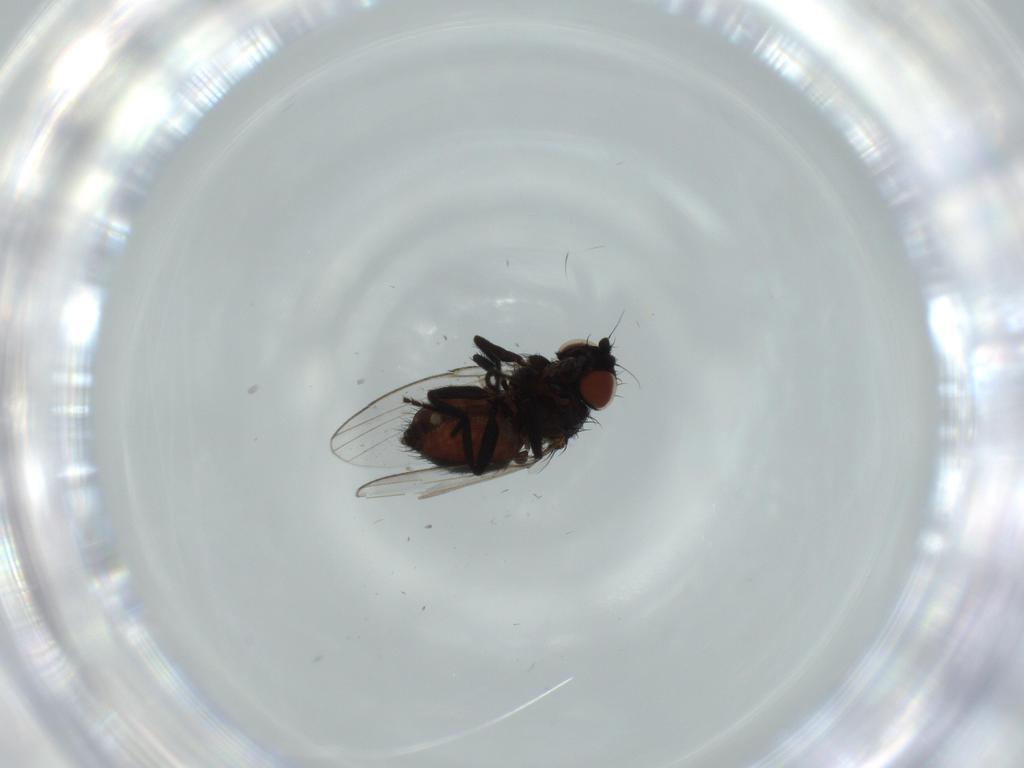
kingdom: Animalia
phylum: Arthropoda
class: Insecta
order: Diptera
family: Milichiidae
